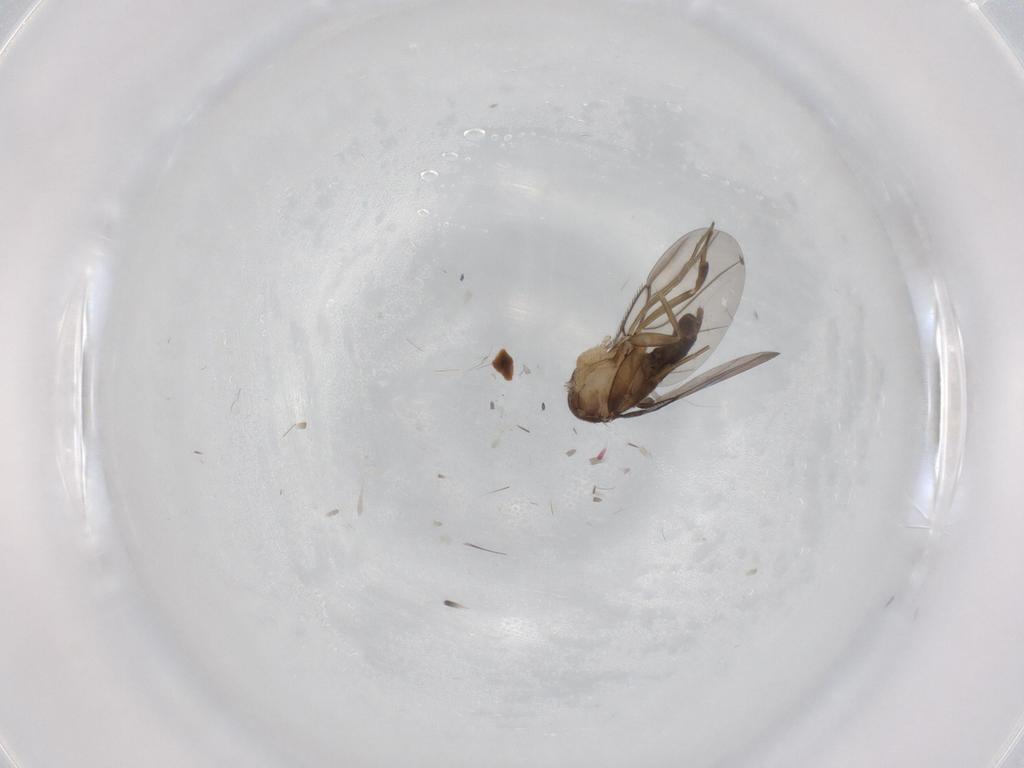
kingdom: Animalia
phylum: Arthropoda
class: Insecta
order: Diptera
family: Phoridae
